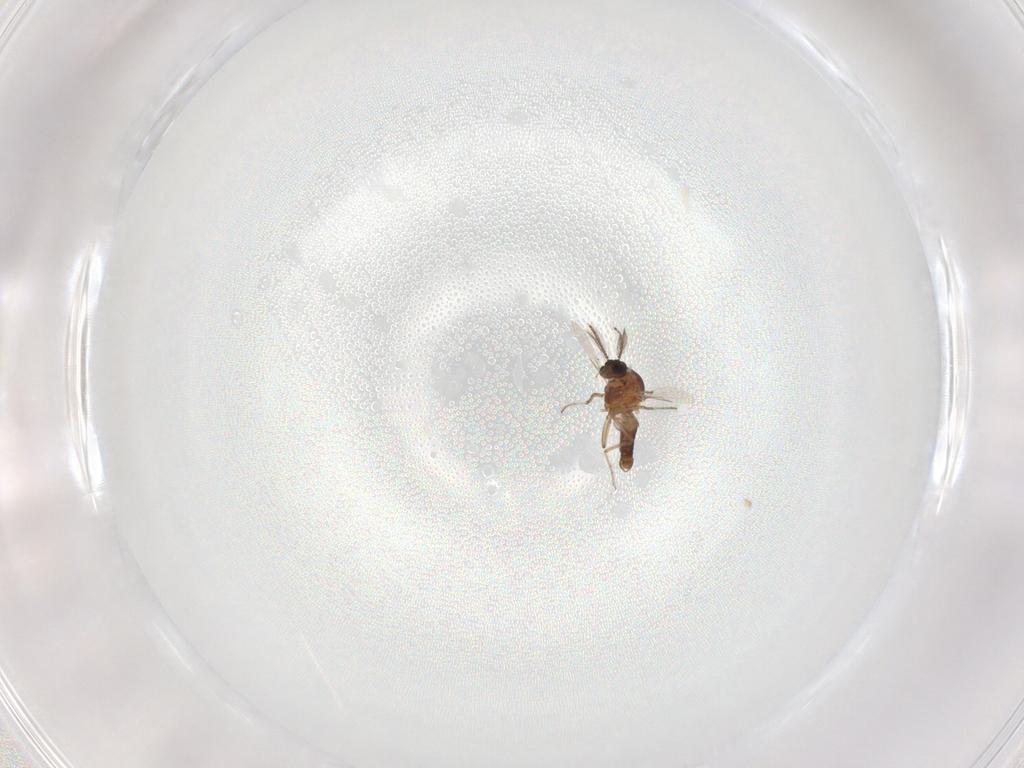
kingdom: Animalia
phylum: Arthropoda
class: Insecta
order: Diptera
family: Ceratopogonidae
